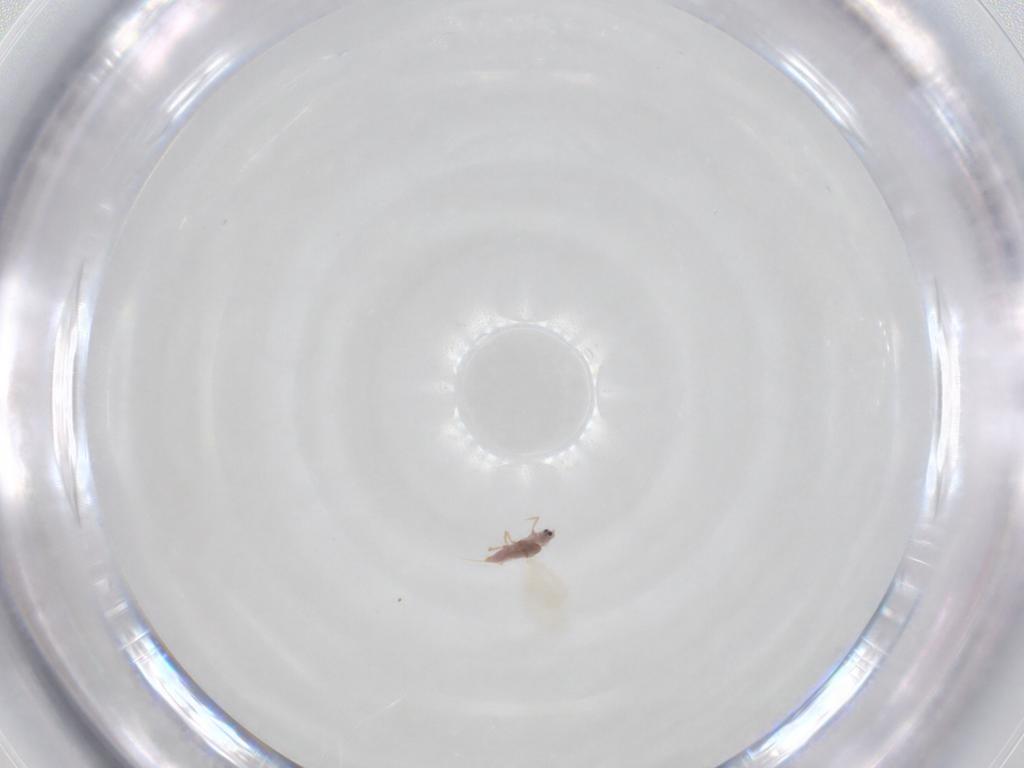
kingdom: Animalia
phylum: Arthropoda
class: Insecta
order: Hemiptera
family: Diaspididae
